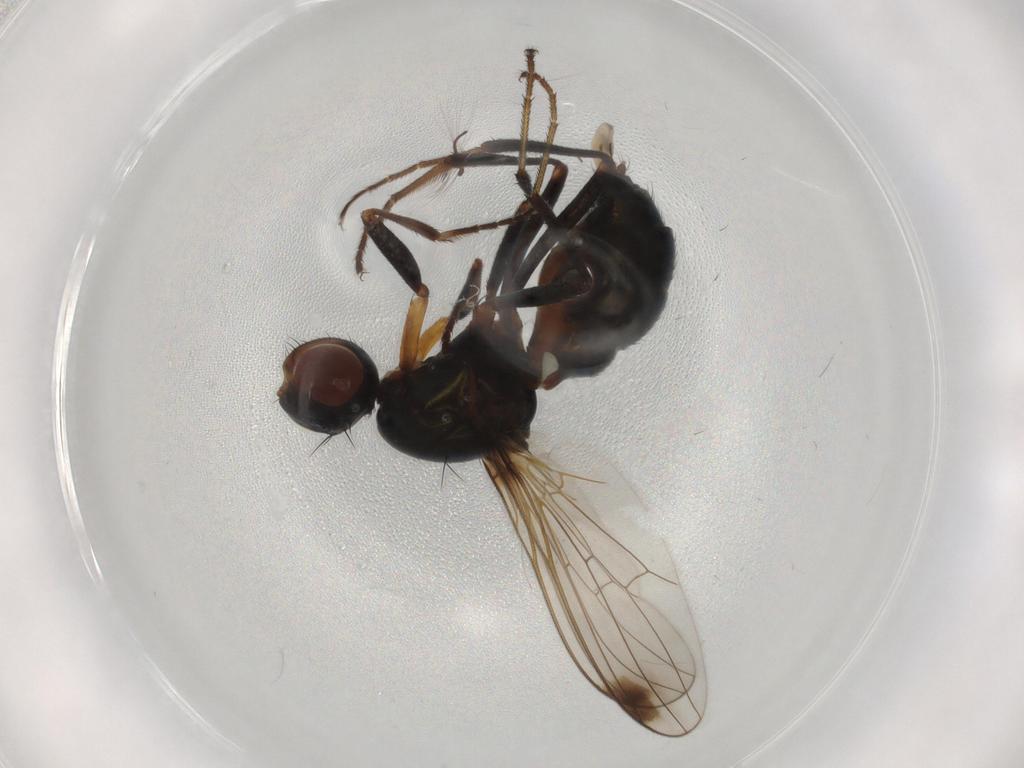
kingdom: Animalia
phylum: Arthropoda
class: Insecta
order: Diptera
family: Sepsidae
